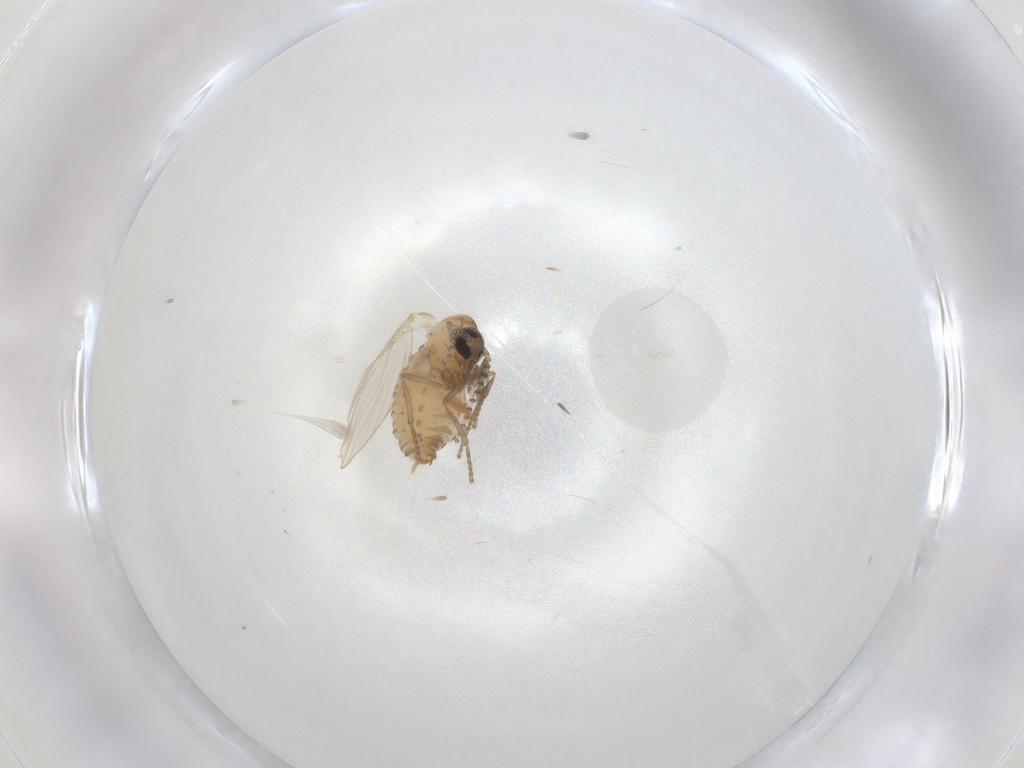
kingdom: Animalia
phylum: Arthropoda
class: Insecta
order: Diptera
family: Psychodidae
